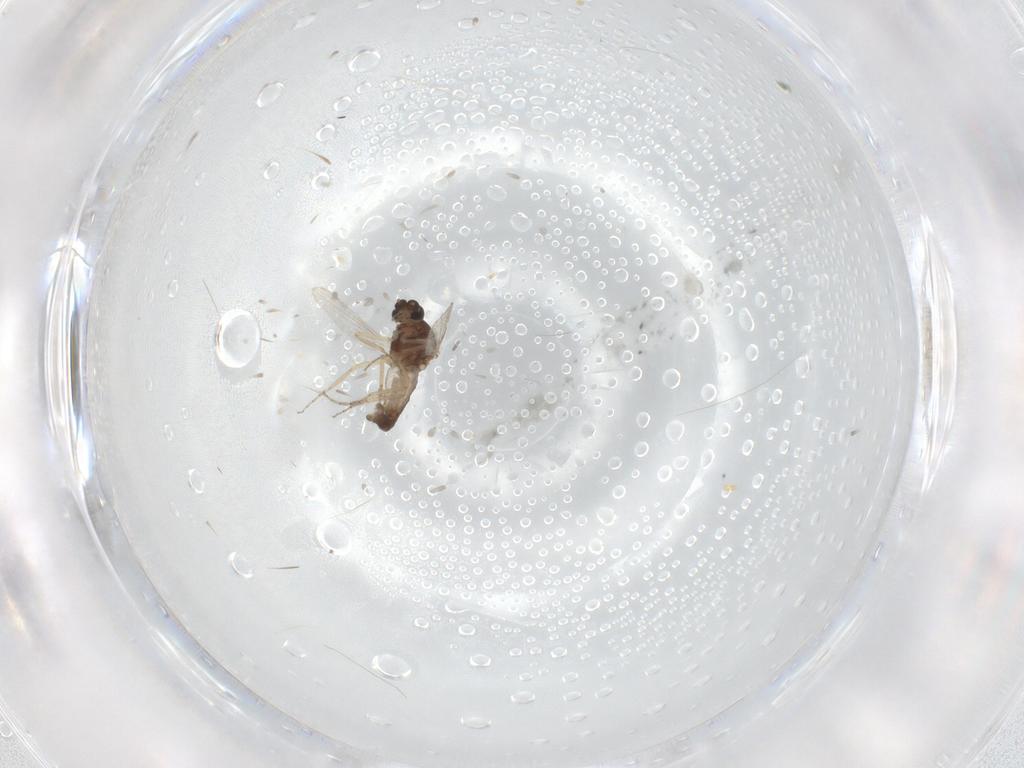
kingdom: Animalia
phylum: Arthropoda
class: Insecta
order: Diptera
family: Ceratopogonidae
